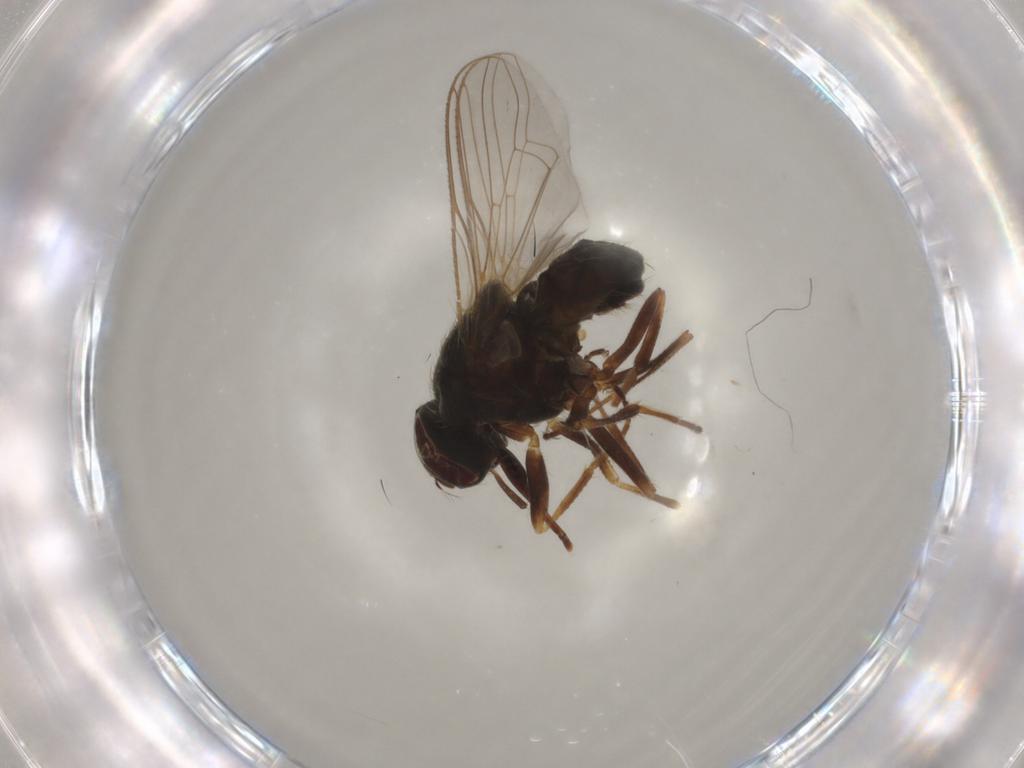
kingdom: Animalia
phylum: Arthropoda
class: Insecta
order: Diptera
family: Muscidae
